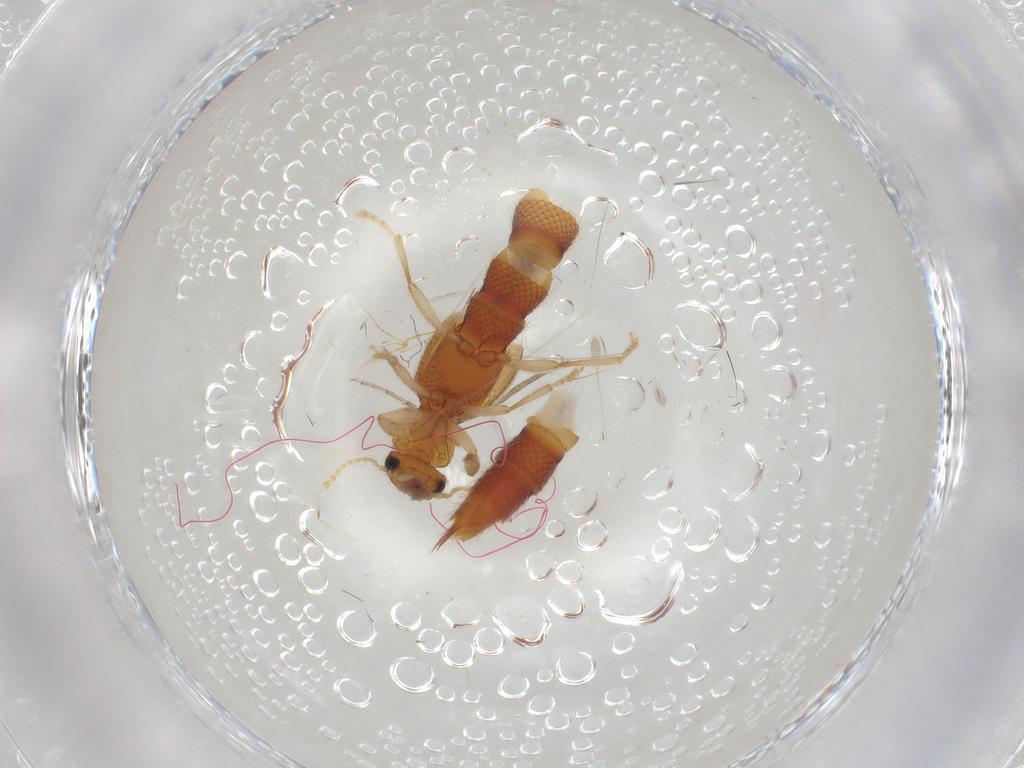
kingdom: Animalia
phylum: Arthropoda
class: Insecta
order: Coleoptera
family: Staphylinidae
